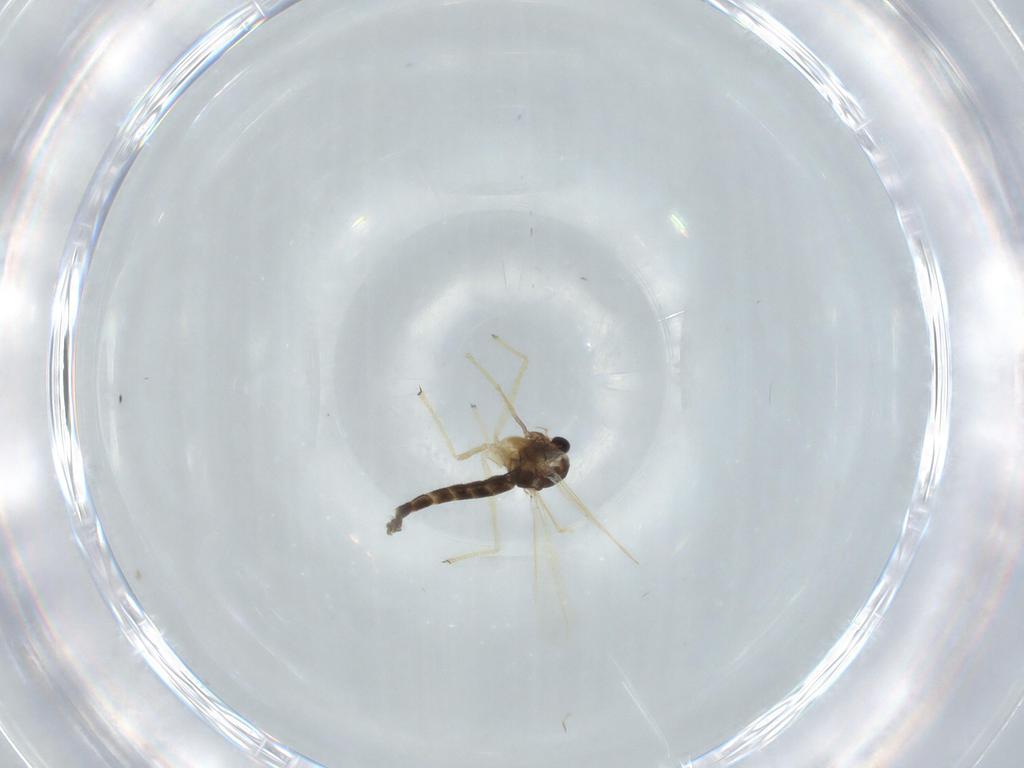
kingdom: Animalia
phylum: Arthropoda
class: Insecta
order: Diptera
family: Chironomidae
